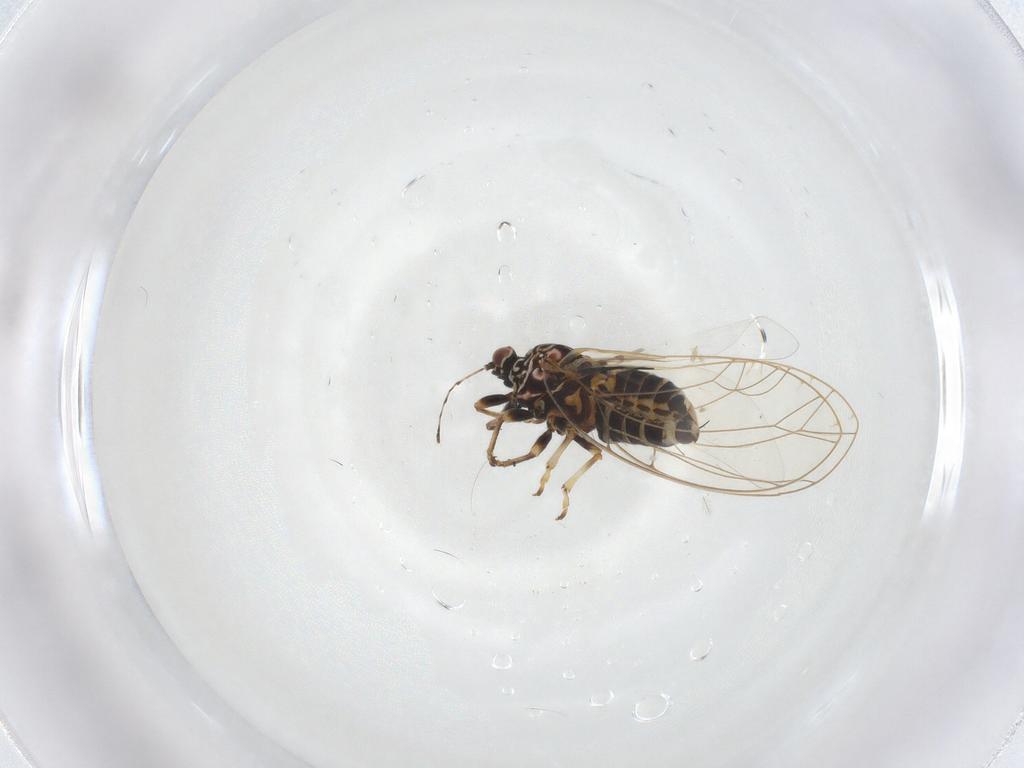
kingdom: Animalia
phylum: Arthropoda
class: Insecta
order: Hemiptera
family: Triozidae
